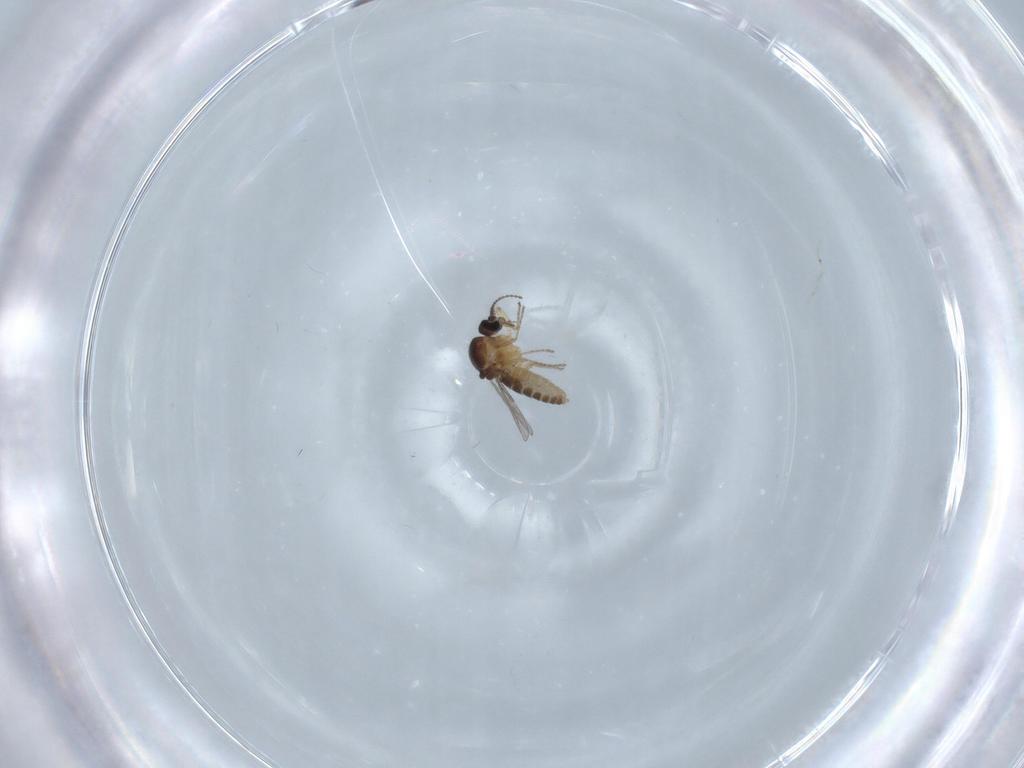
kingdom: Animalia
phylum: Arthropoda
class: Insecta
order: Diptera
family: Ceratopogonidae
